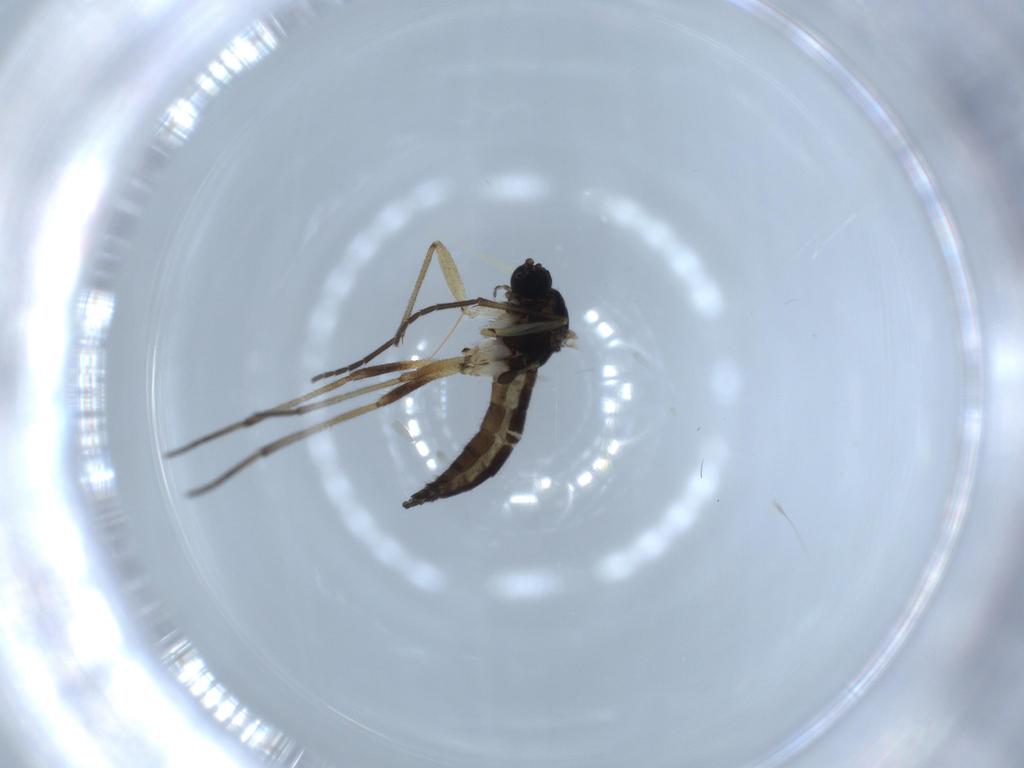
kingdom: Animalia
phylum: Arthropoda
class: Insecta
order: Diptera
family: Sciaridae
